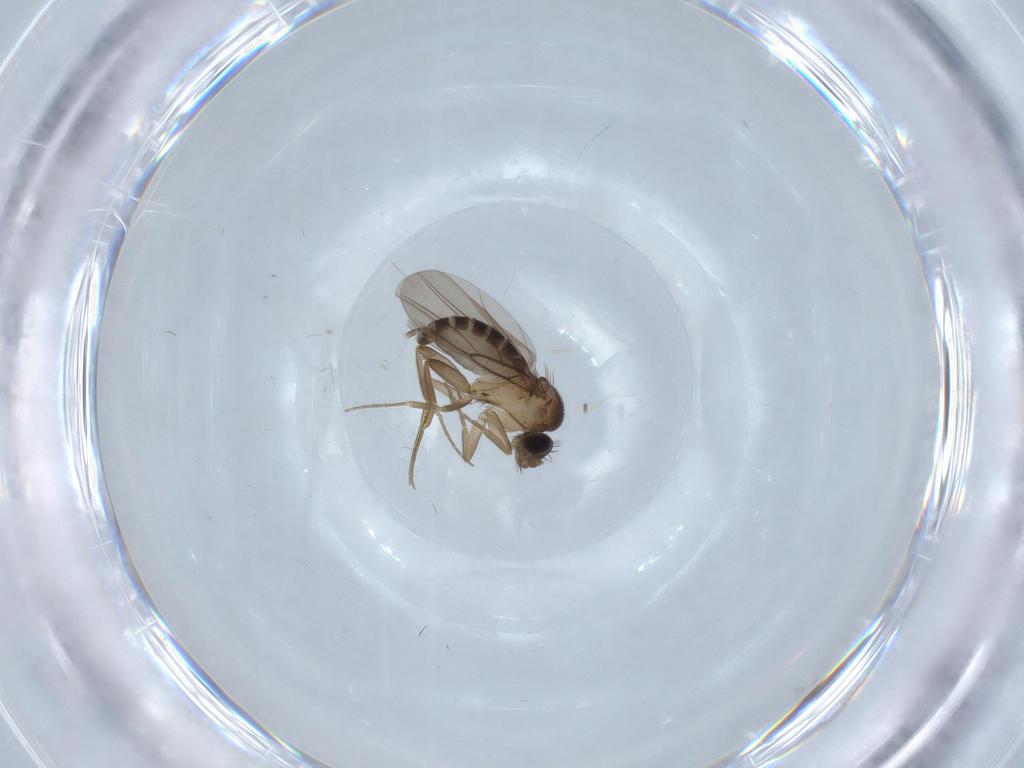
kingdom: Animalia
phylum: Arthropoda
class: Insecta
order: Diptera
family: Phoridae
